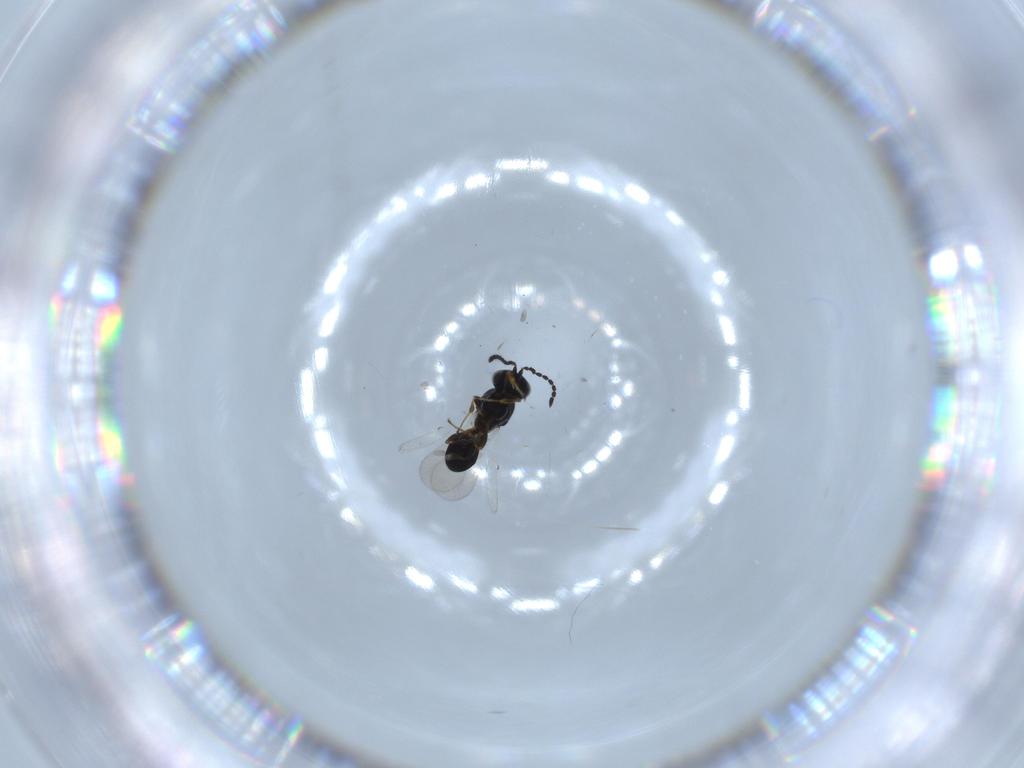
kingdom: Animalia
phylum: Arthropoda
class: Insecta
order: Hymenoptera
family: Platygastridae
